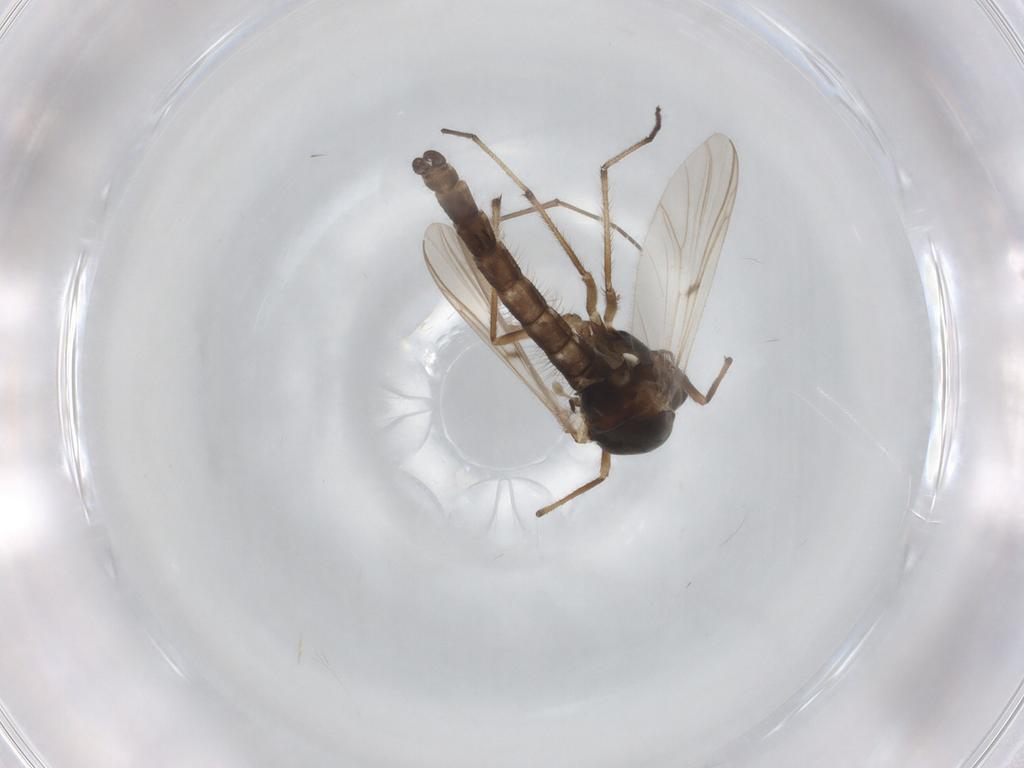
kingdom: Animalia
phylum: Arthropoda
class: Insecta
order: Diptera
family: Chironomidae
